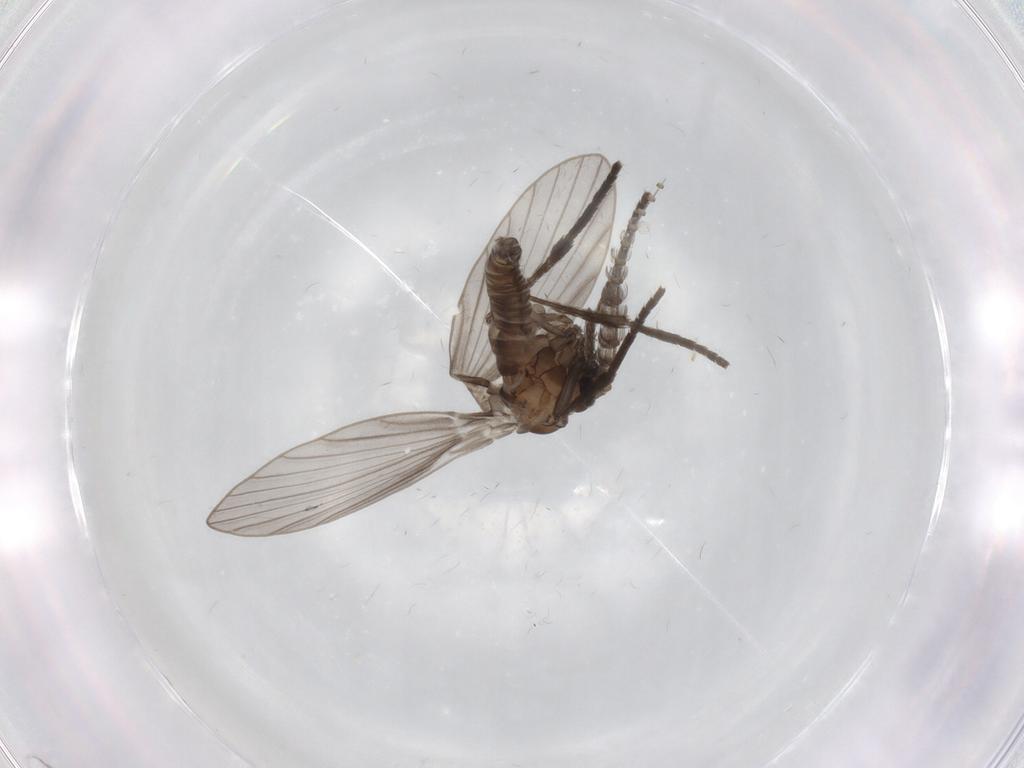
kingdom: Animalia
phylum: Arthropoda
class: Insecta
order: Diptera
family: Psychodidae
